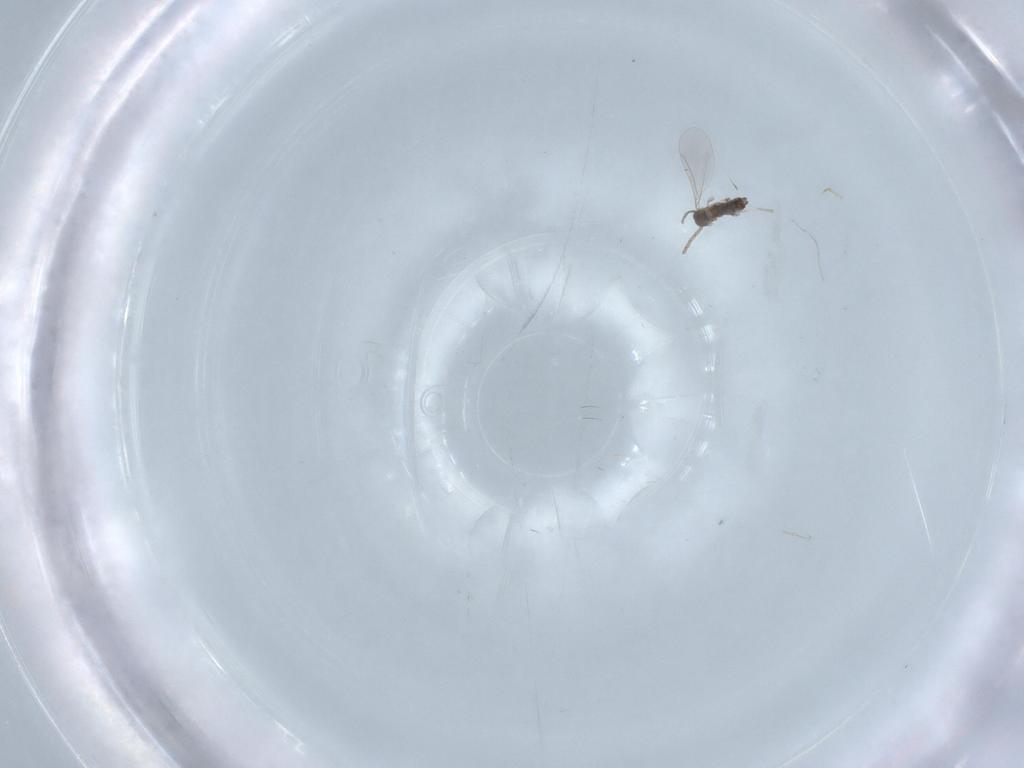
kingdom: Animalia
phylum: Arthropoda
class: Insecta
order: Diptera
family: Cecidomyiidae
